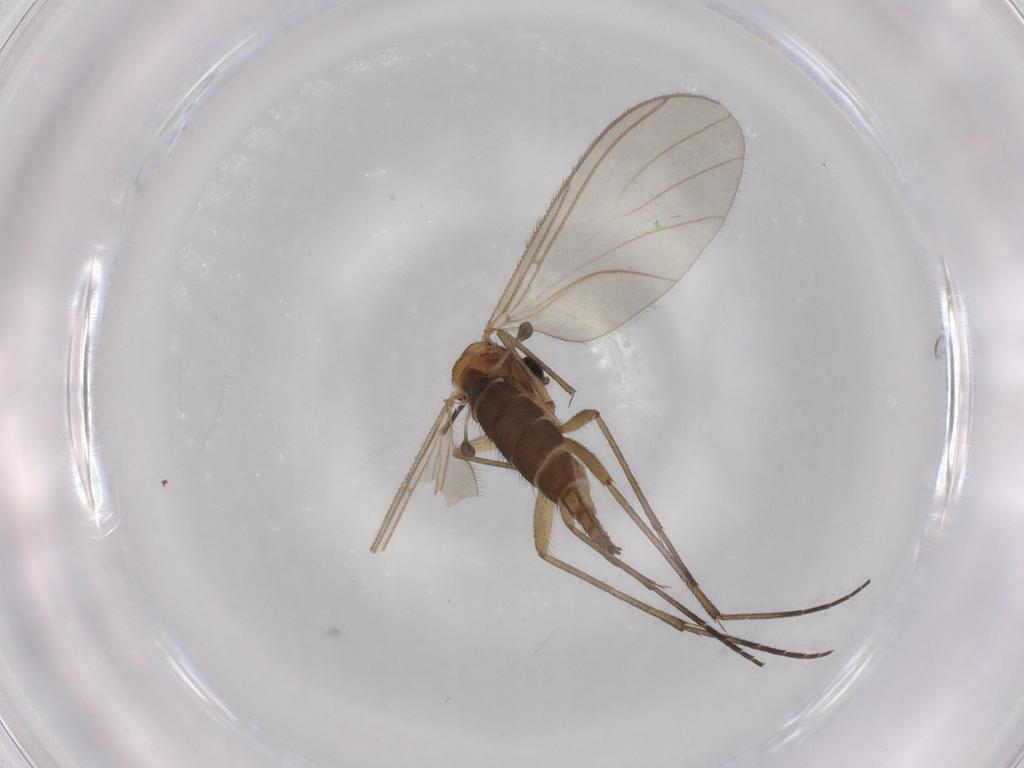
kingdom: Animalia
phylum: Arthropoda
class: Insecta
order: Diptera
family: Sciaridae
